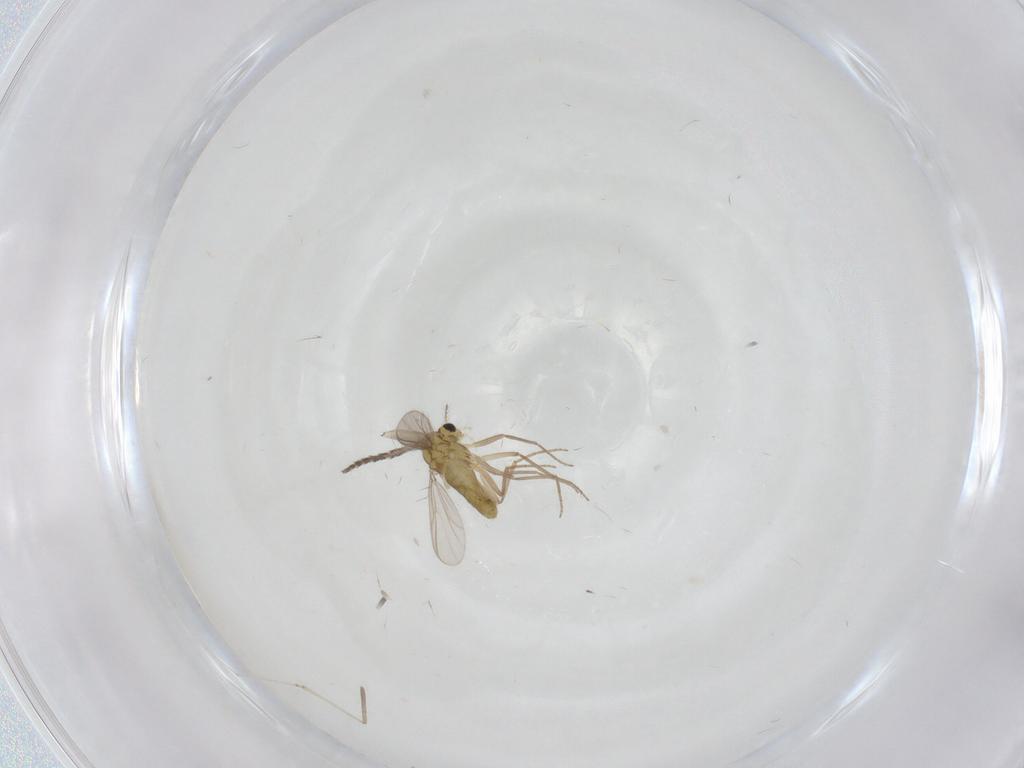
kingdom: Animalia
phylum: Arthropoda
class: Insecta
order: Diptera
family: Chironomidae
